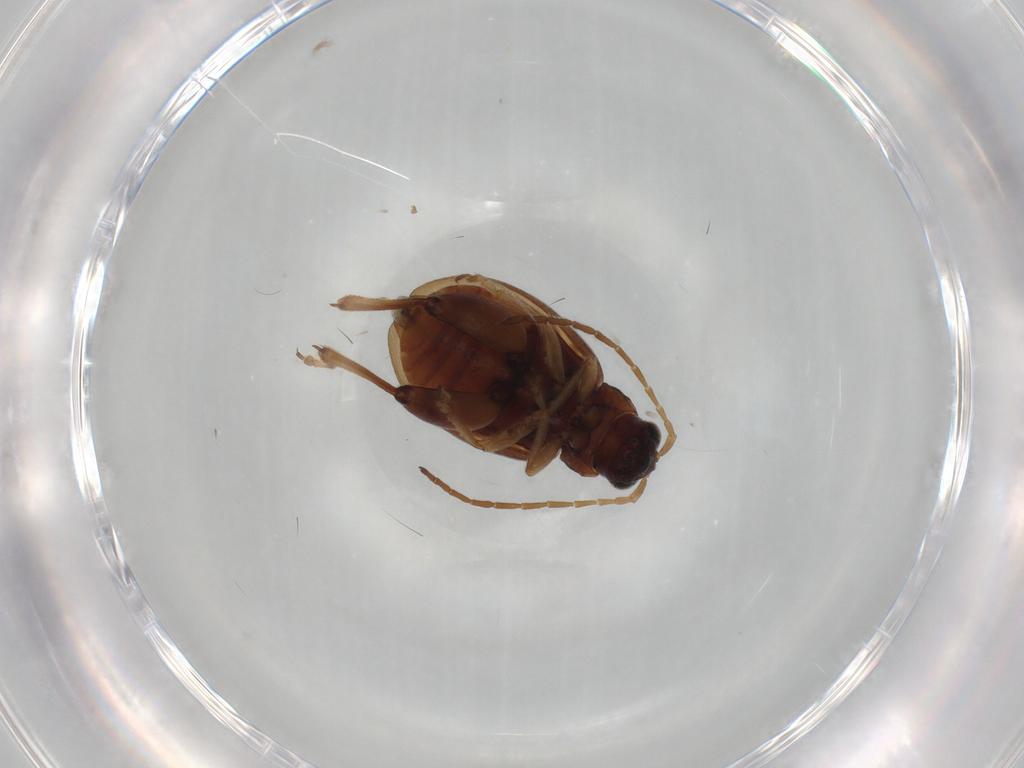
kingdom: Animalia
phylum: Arthropoda
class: Insecta
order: Coleoptera
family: Chrysomelidae
